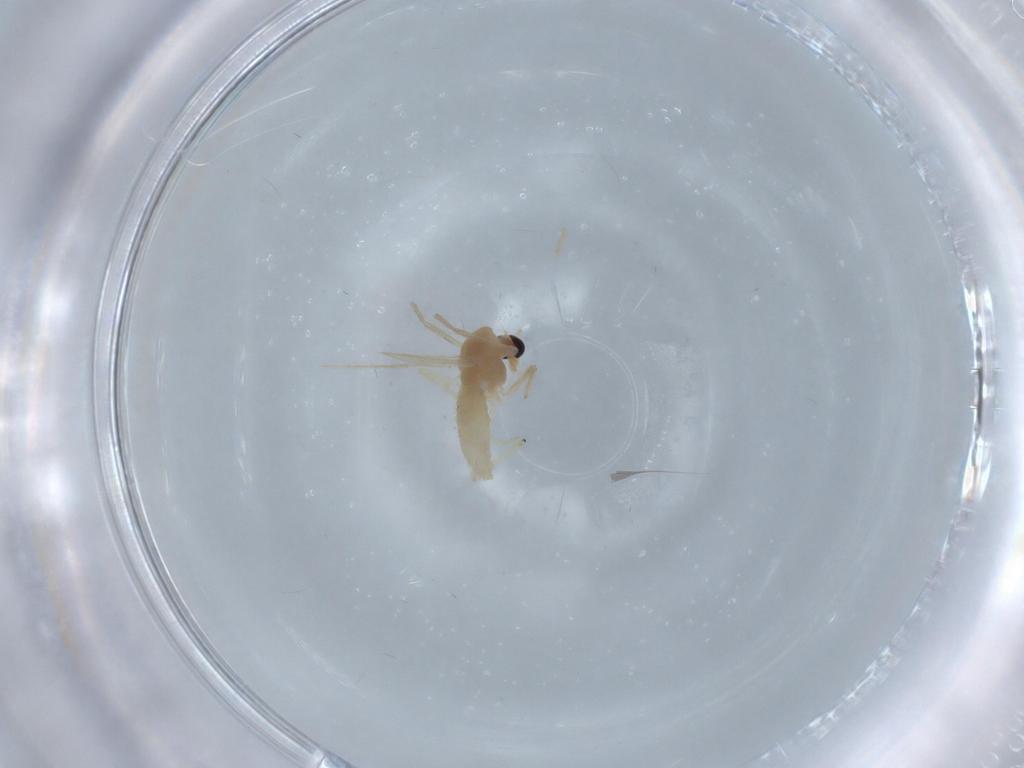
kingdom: Animalia
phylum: Arthropoda
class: Insecta
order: Diptera
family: Chironomidae
